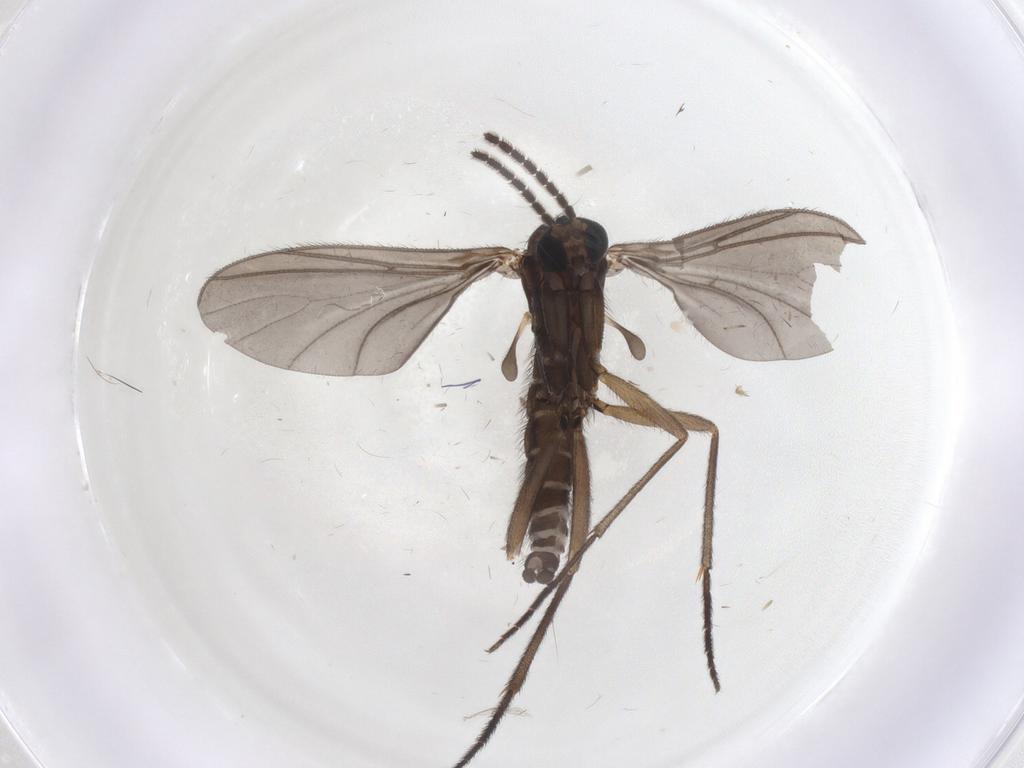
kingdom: Animalia
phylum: Arthropoda
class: Insecta
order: Diptera
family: Sciaridae
